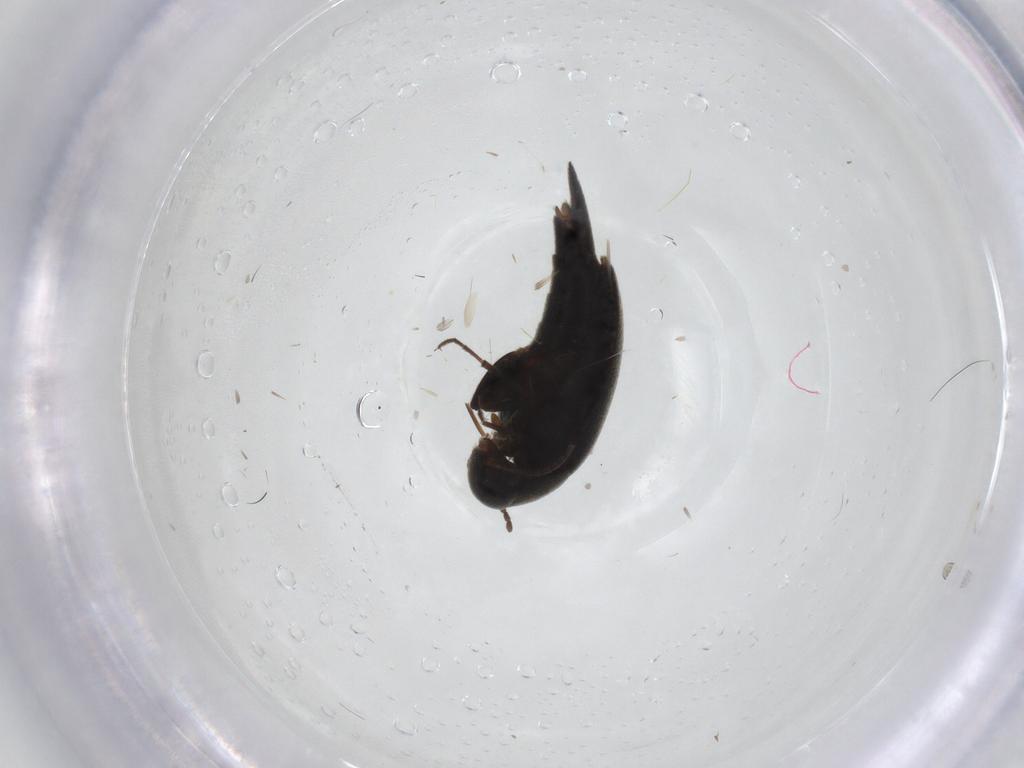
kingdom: Animalia
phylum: Arthropoda
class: Insecta
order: Coleoptera
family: Mordellidae
